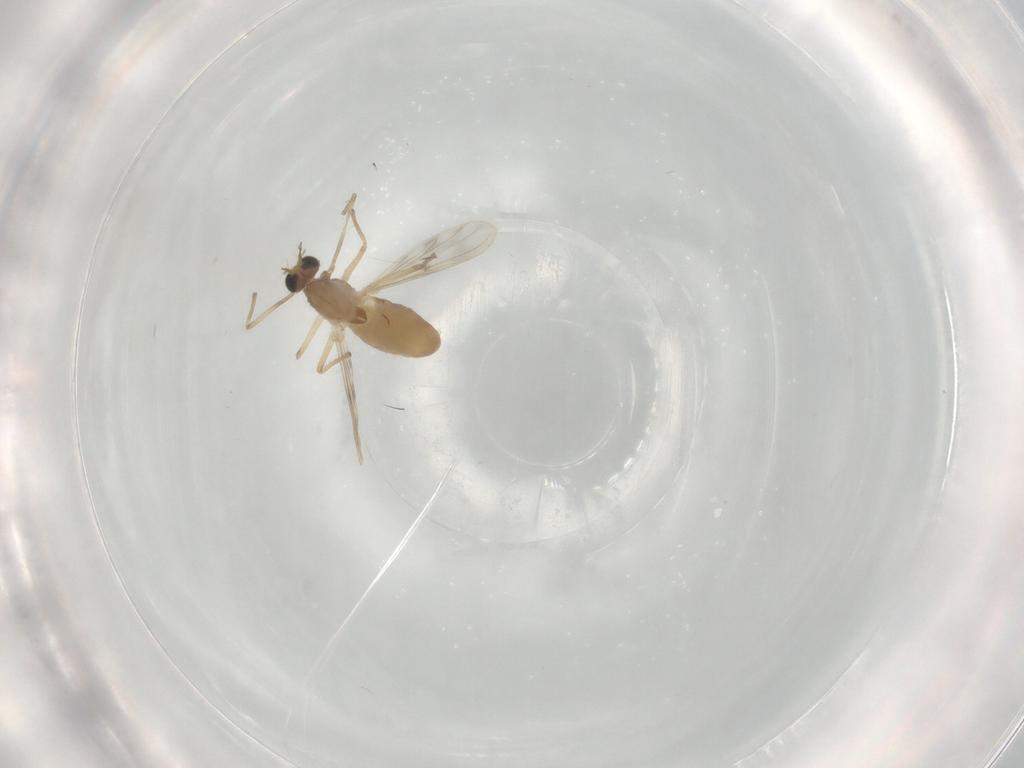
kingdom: Animalia
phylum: Arthropoda
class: Insecta
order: Diptera
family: Chironomidae
